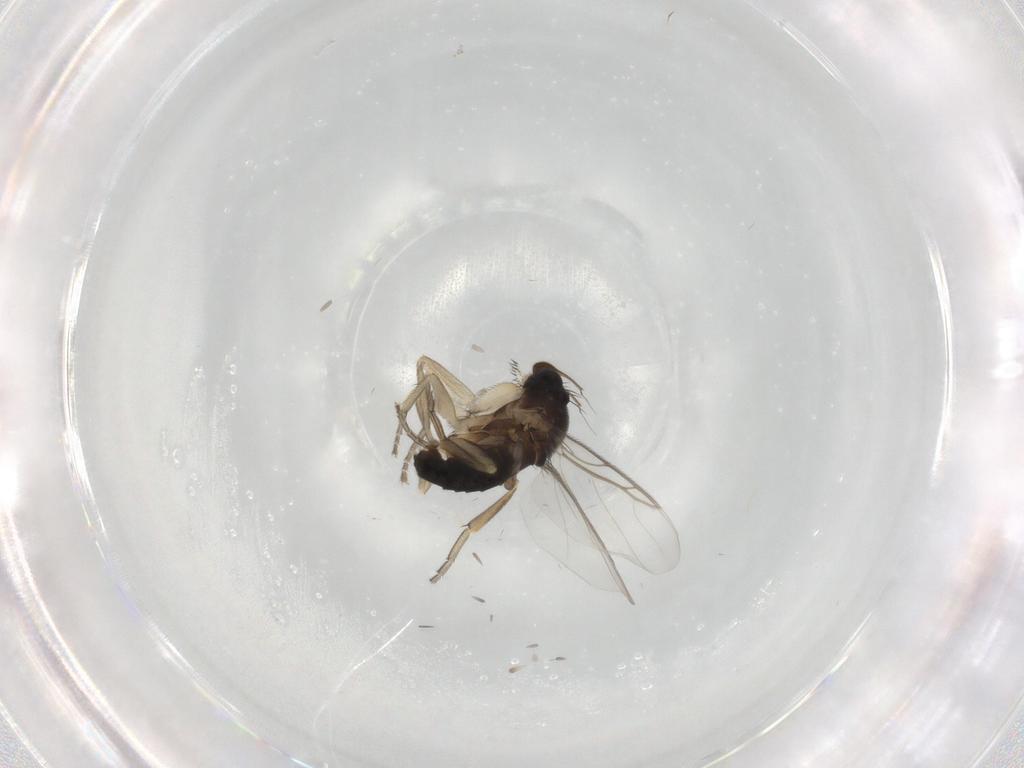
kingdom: Animalia
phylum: Arthropoda
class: Insecta
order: Diptera
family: Phoridae
